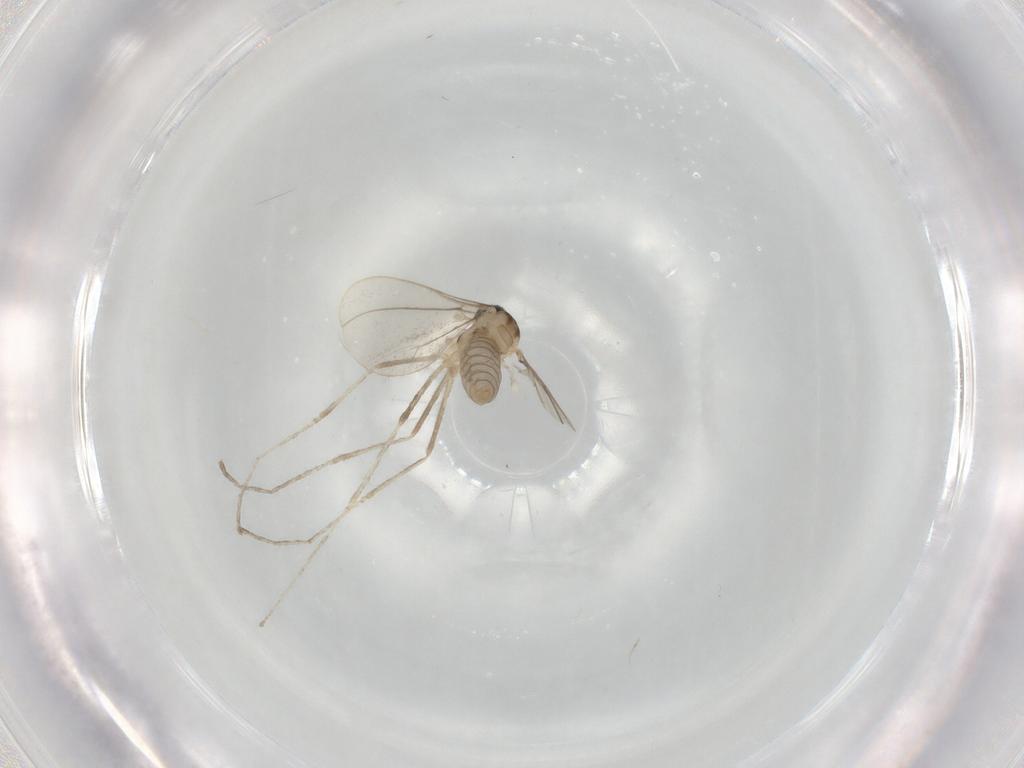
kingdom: Animalia
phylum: Arthropoda
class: Insecta
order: Diptera
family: Cecidomyiidae
